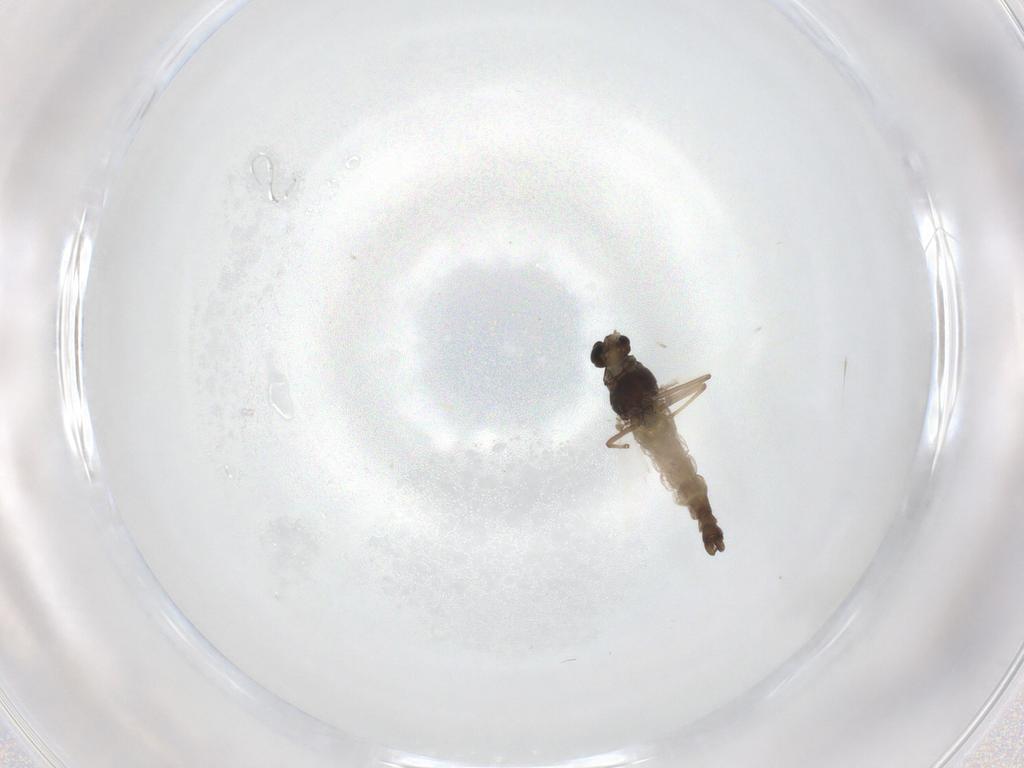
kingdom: Animalia
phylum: Arthropoda
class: Insecta
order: Diptera
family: Chironomidae
